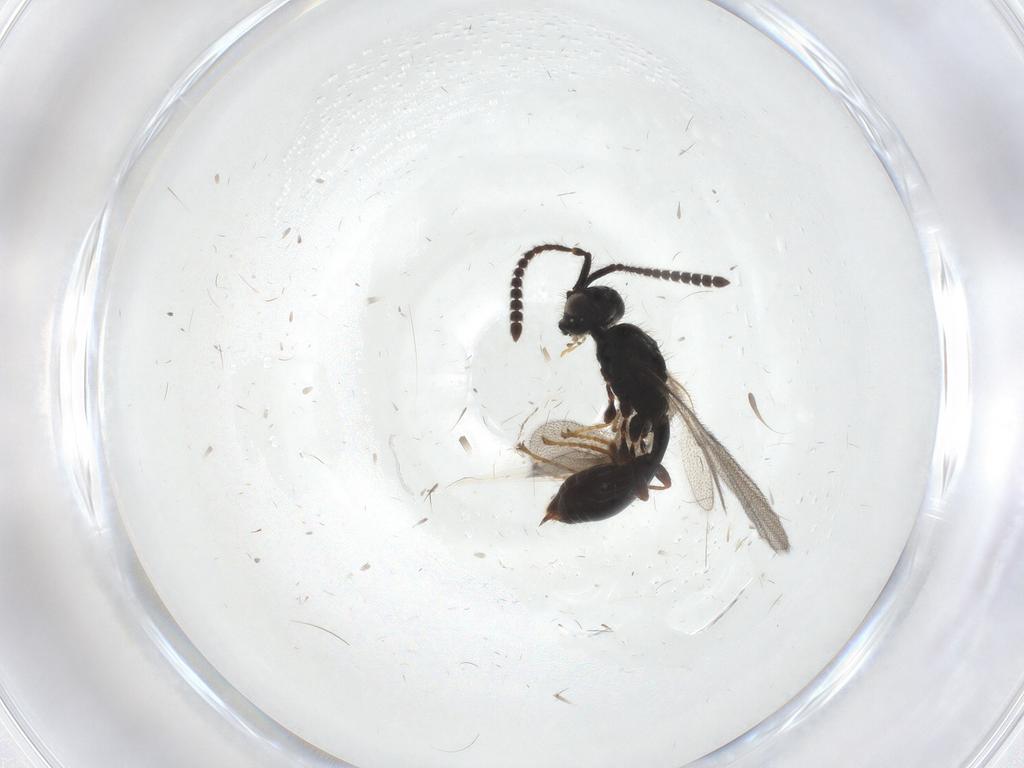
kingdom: Animalia
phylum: Arthropoda
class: Insecta
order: Hymenoptera
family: Diapriidae
